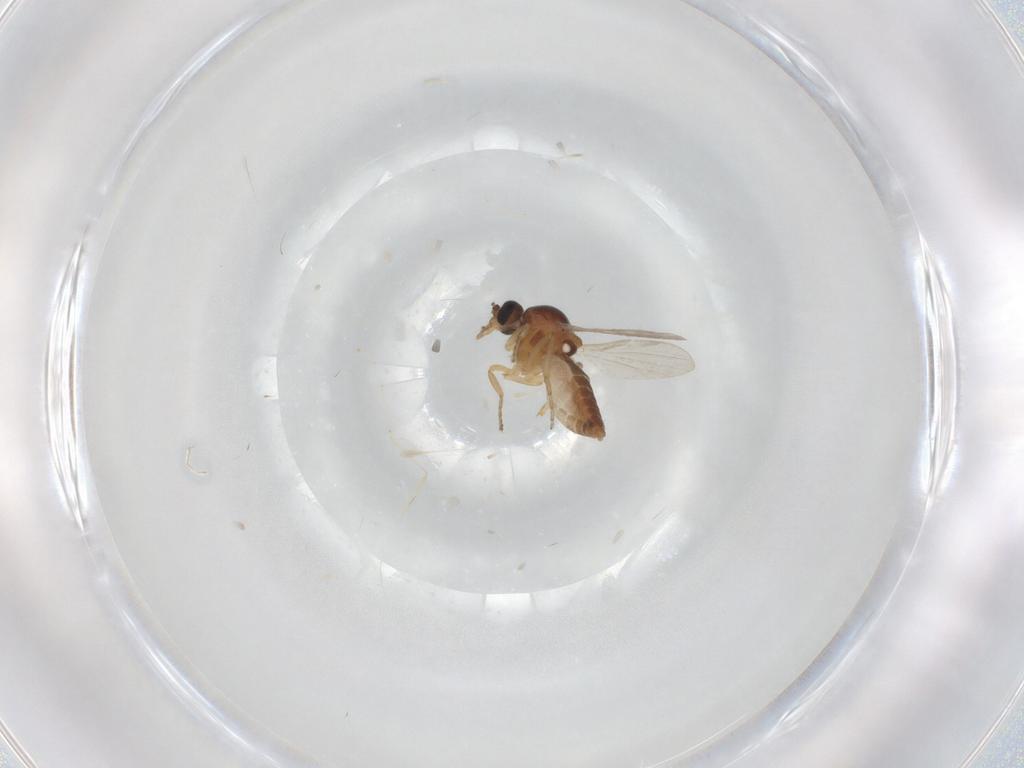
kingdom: Animalia
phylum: Arthropoda
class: Insecta
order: Diptera
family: Ceratopogonidae
